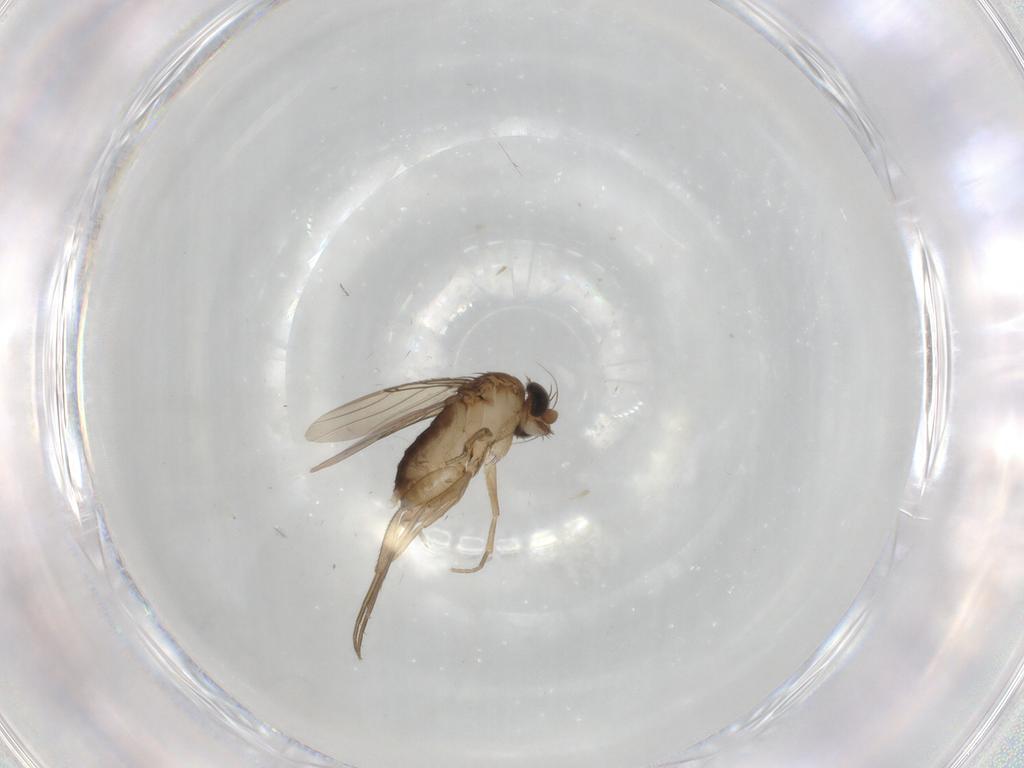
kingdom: Animalia
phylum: Arthropoda
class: Insecta
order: Diptera
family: Phoridae
